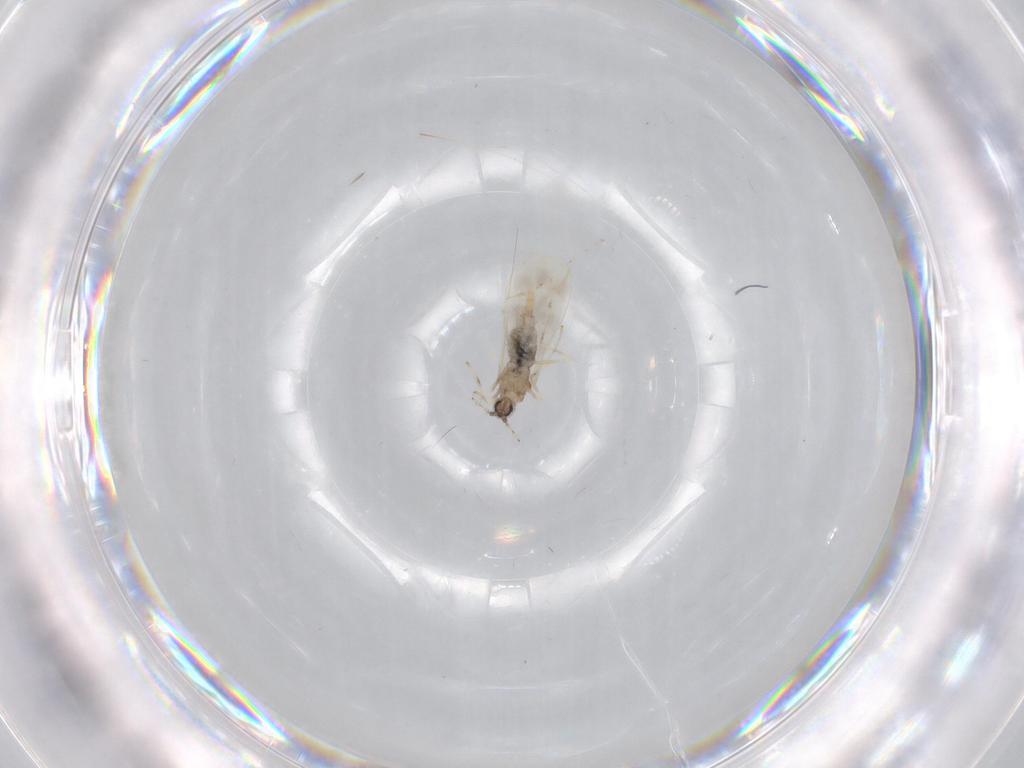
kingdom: Animalia
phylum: Arthropoda
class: Insecta
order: Diptera
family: Cecidomyiidae
